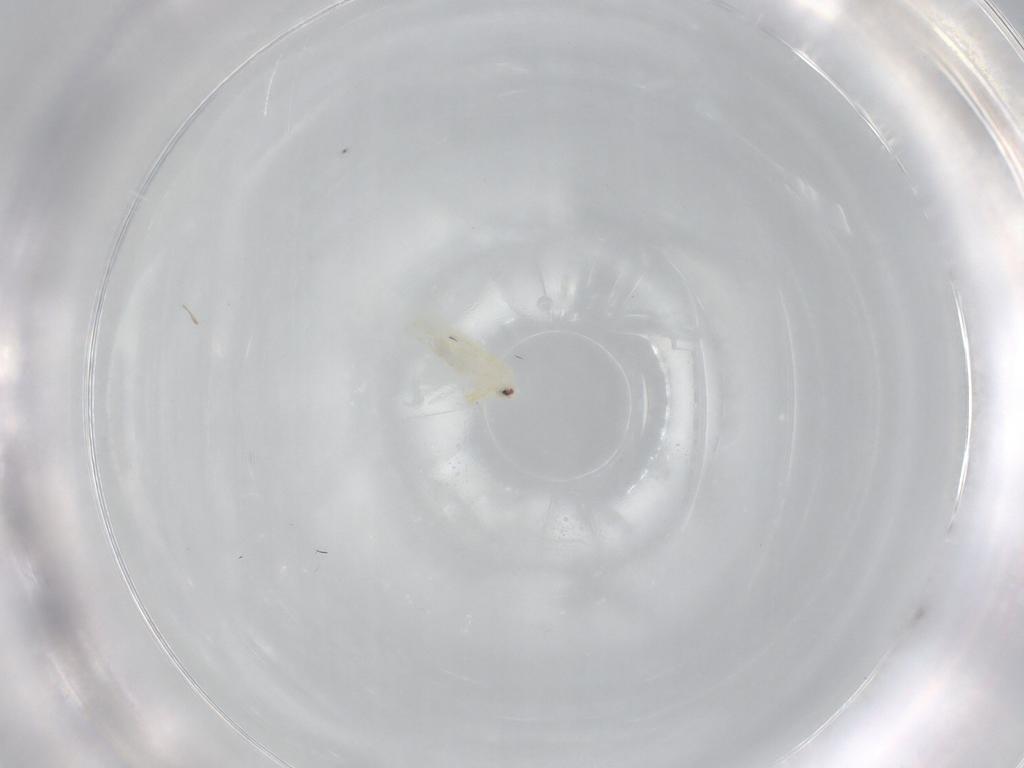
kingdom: Animalia
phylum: Arthropoda
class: Insecta
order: Hemiptera
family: Aleyrodidae
